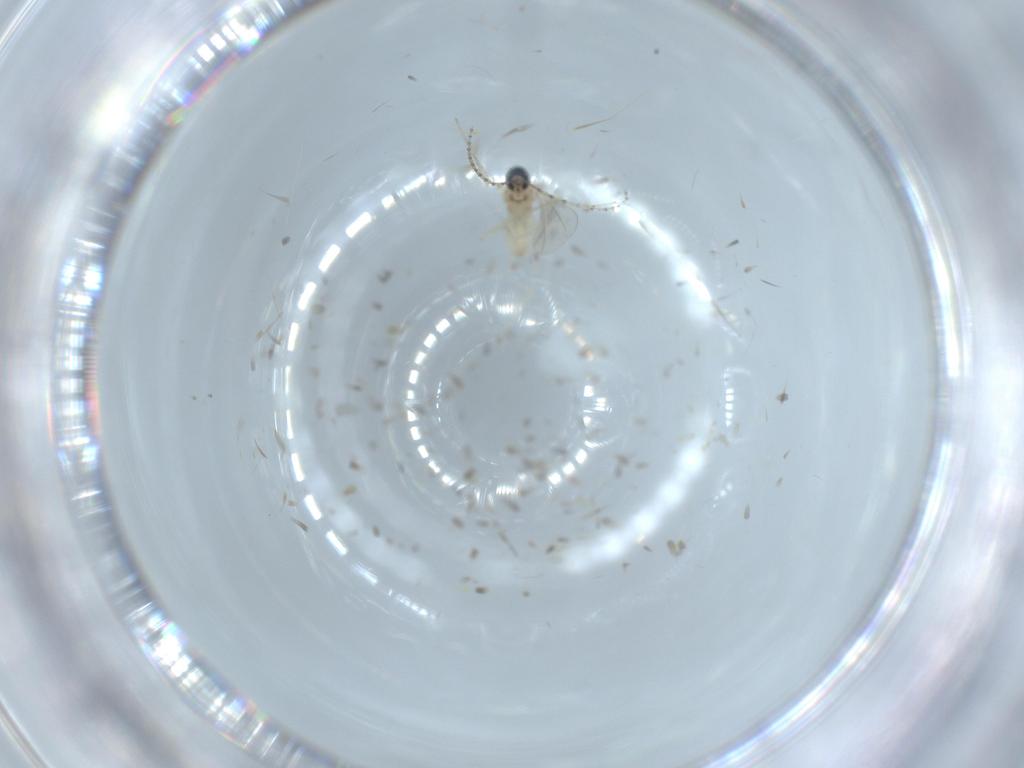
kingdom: Animalia
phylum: Arthropoda
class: Insecta
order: Diptera
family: Cecidomyiidae
